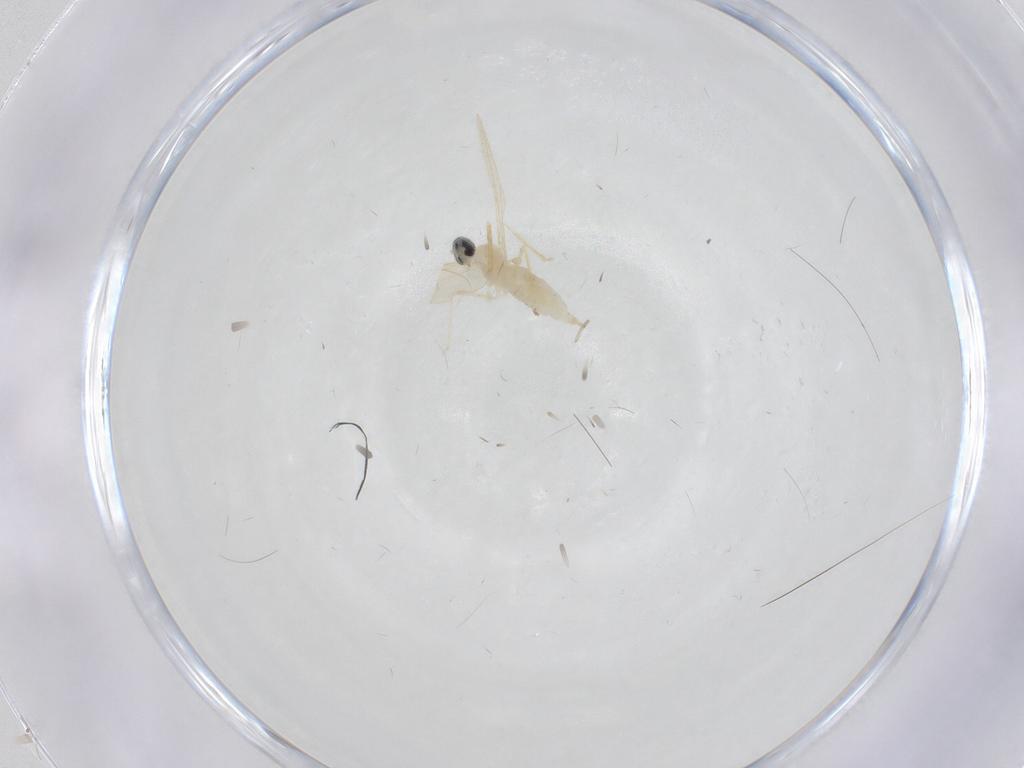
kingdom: Animalia
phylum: Arthropoda
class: Insecta
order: Diptera
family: Cecidomyiidae
